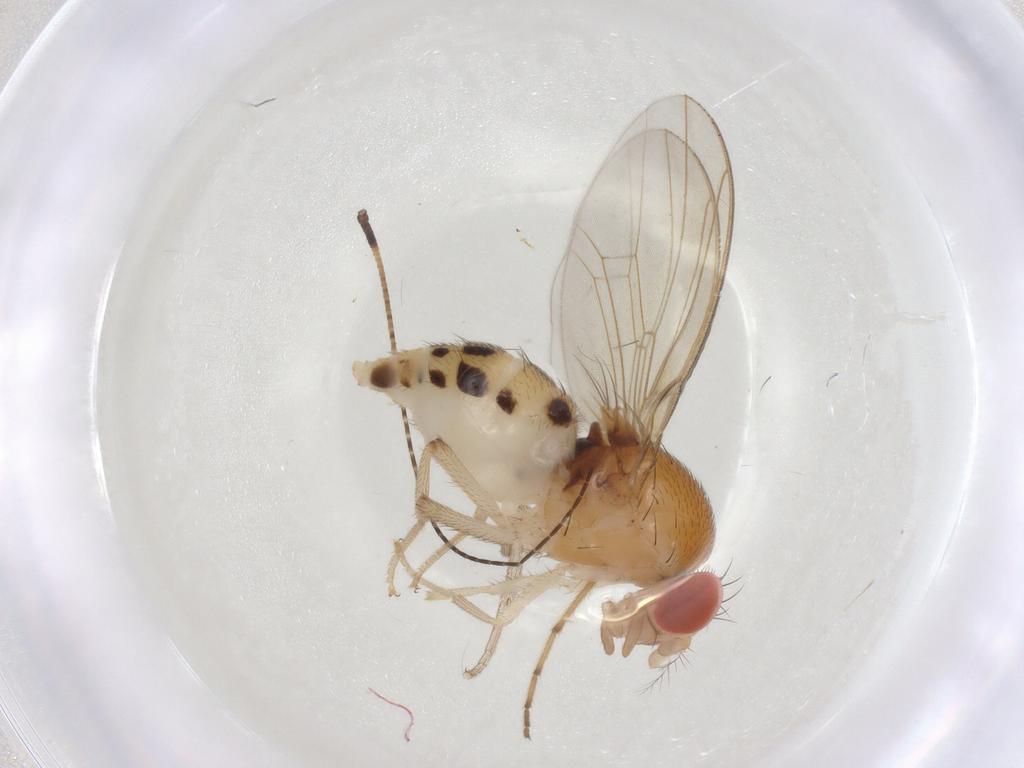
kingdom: Animalia
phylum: Arthropoda
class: Insecta
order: Diptera
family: Drosophilidae
